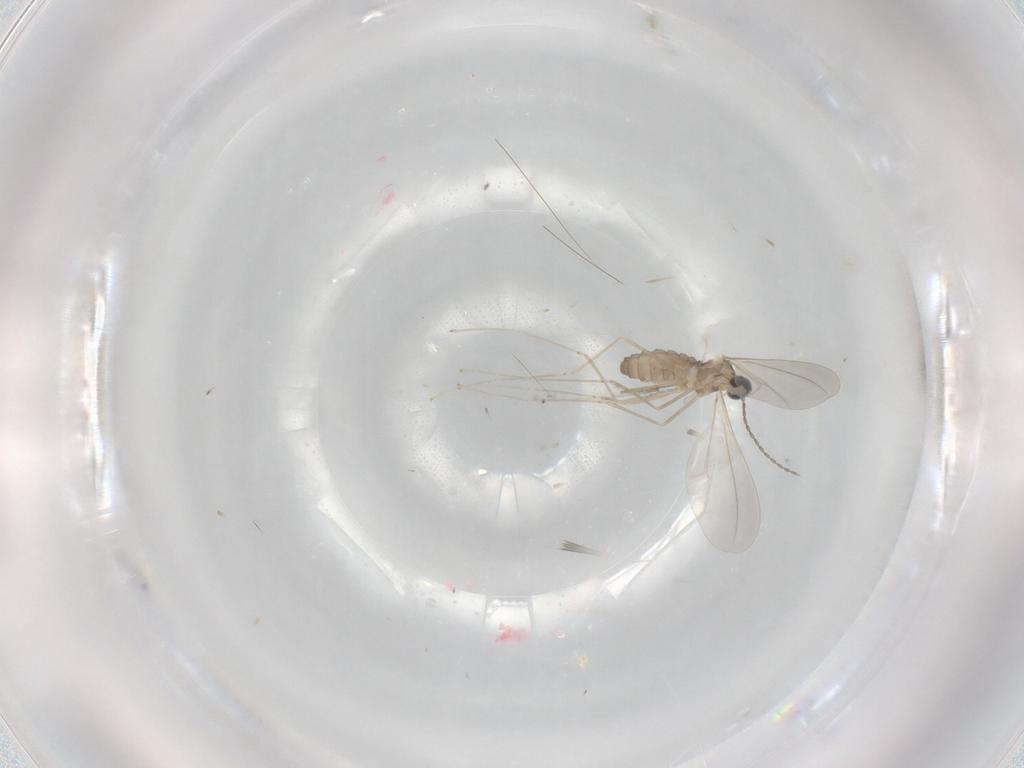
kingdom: Animalia
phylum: Arthropoda
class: Insecta
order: Diptera
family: Cecidomyiidae
